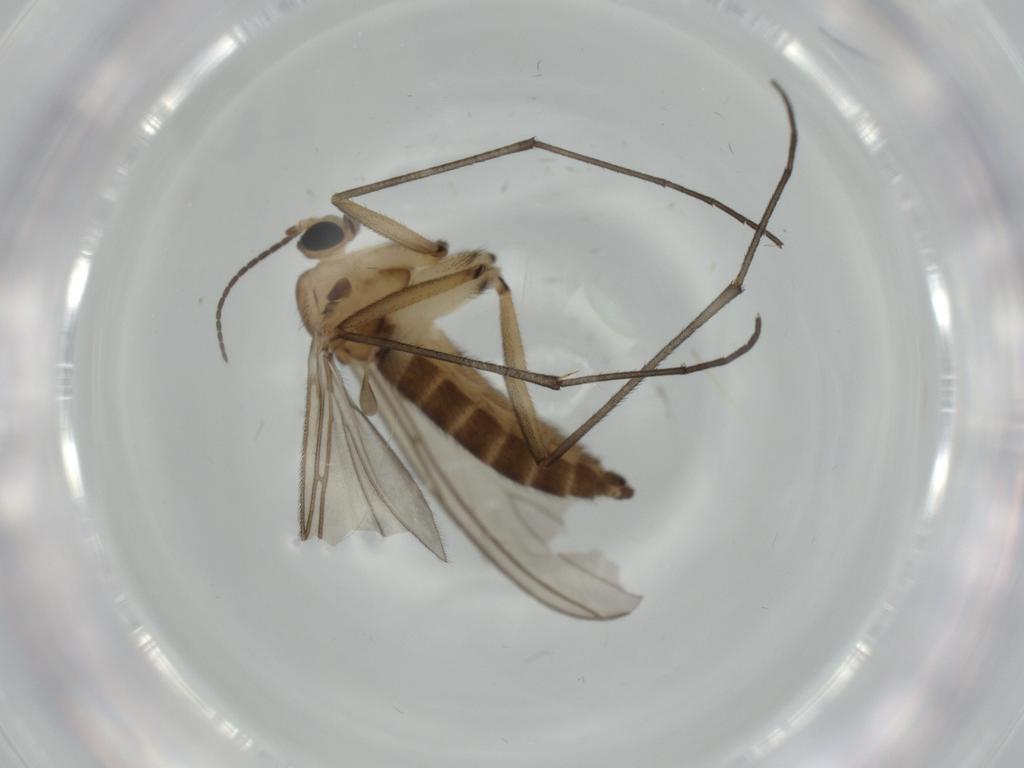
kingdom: Animalia
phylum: Arthropoda
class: Insecta
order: Diptera
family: Sciaridae
